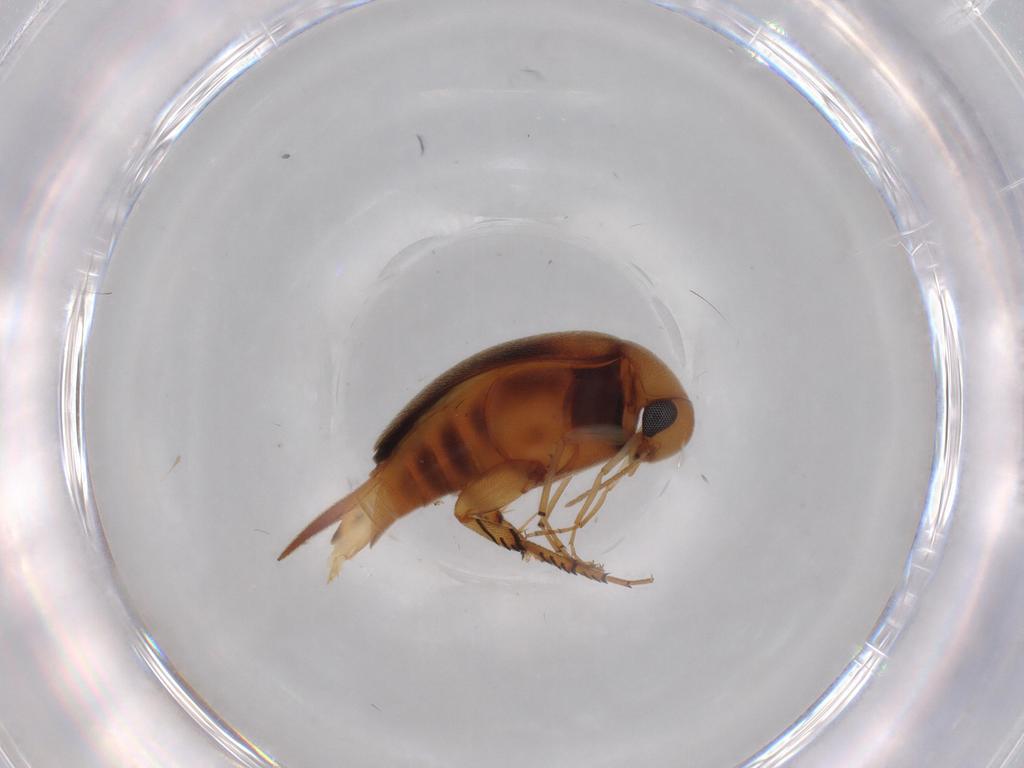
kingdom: Animalia
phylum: Arthropoda
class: Insecta
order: Coleoptera
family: Mordellidae
